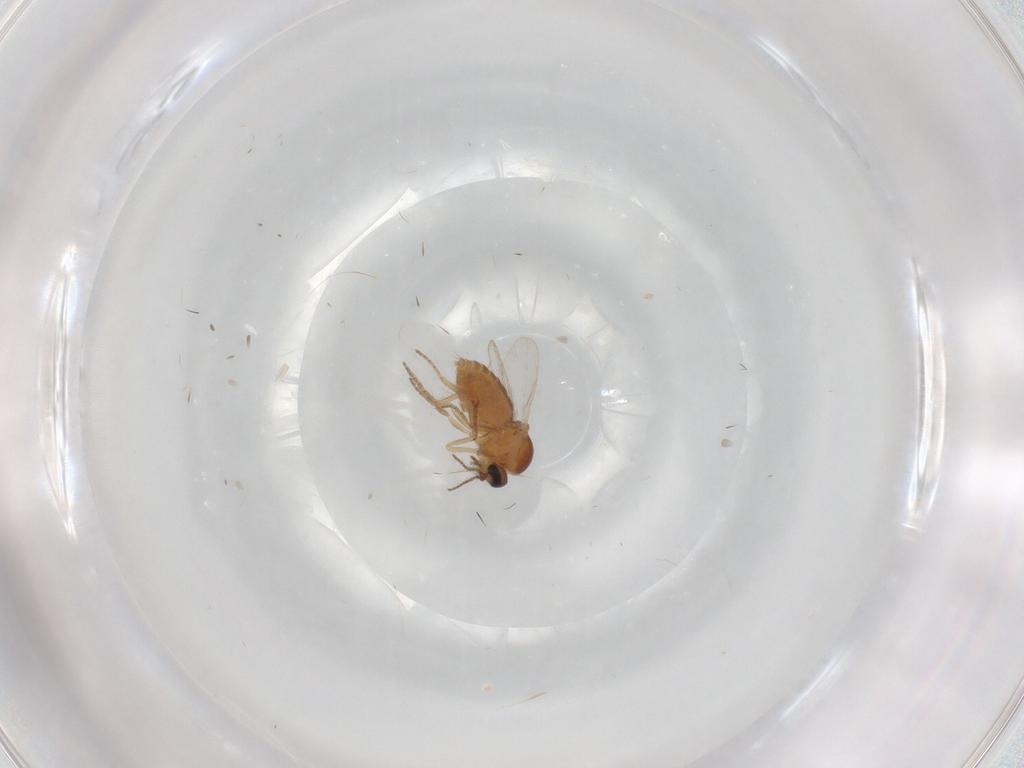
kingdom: Animalia
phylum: Arthropoda
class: Insecta
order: Diptera
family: Ceratopogonidae
